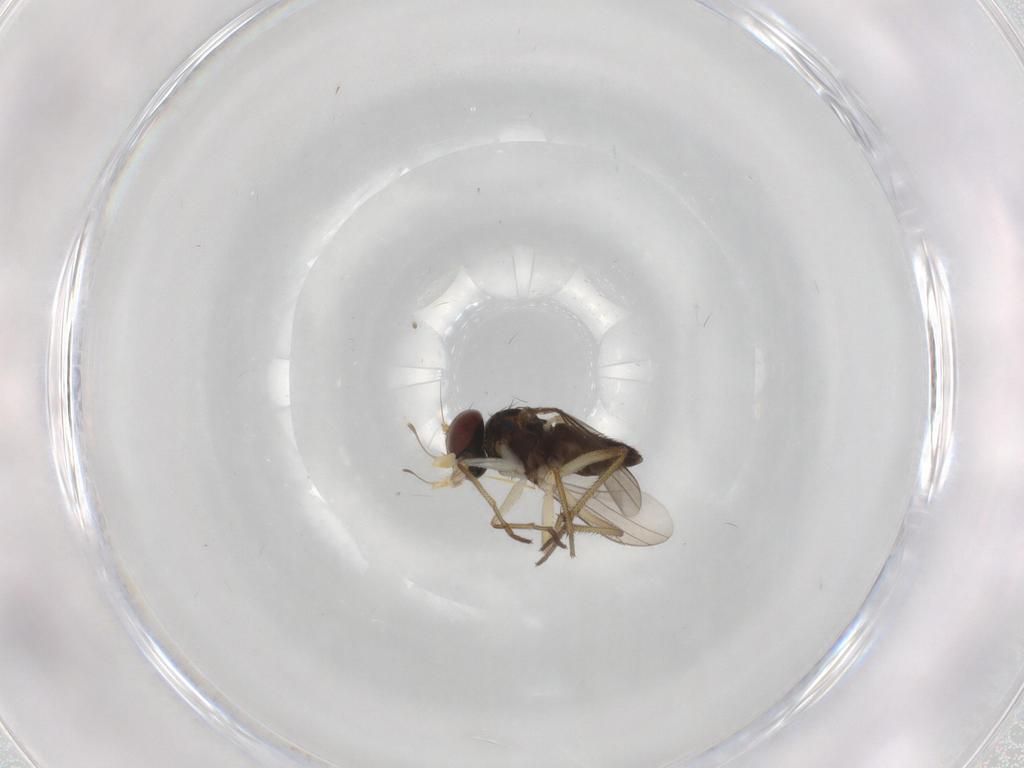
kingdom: Animalia
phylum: Arthropoda
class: Insecta
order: Diptera
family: Dolichopodidae
